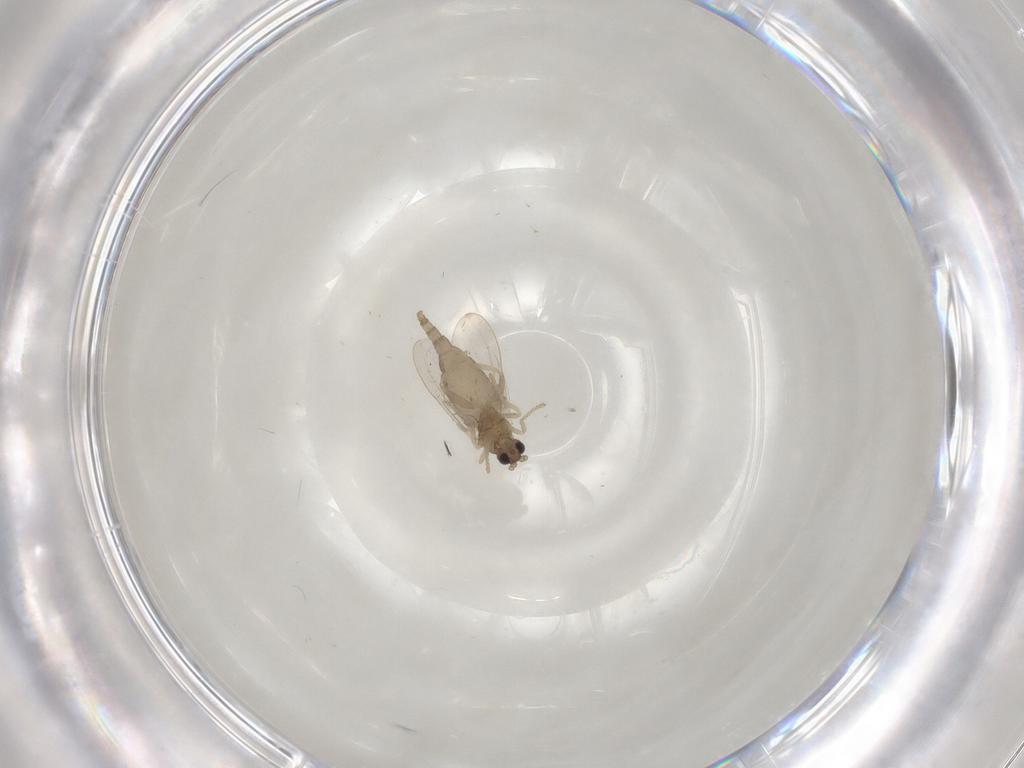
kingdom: Animalia
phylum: Arthropoda
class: Insecta
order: Diptera
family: Cecidomyiidae
